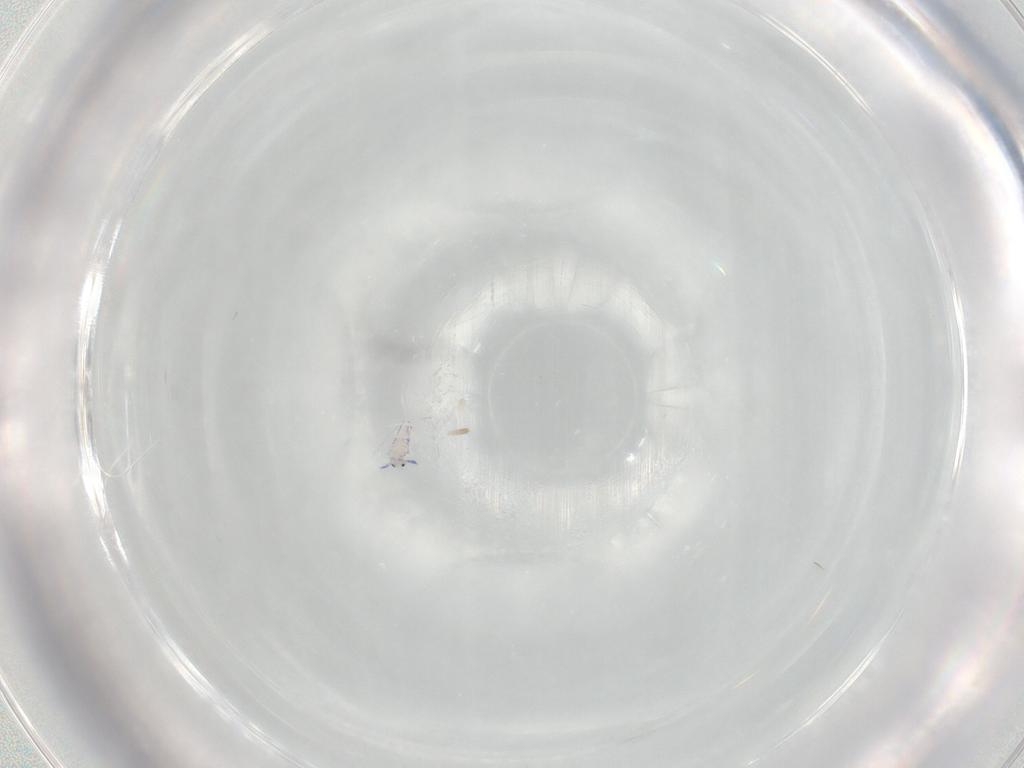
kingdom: Animalia
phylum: Arthropoda
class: Collembola
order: Entomobryomorpha
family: Entomobryidae
